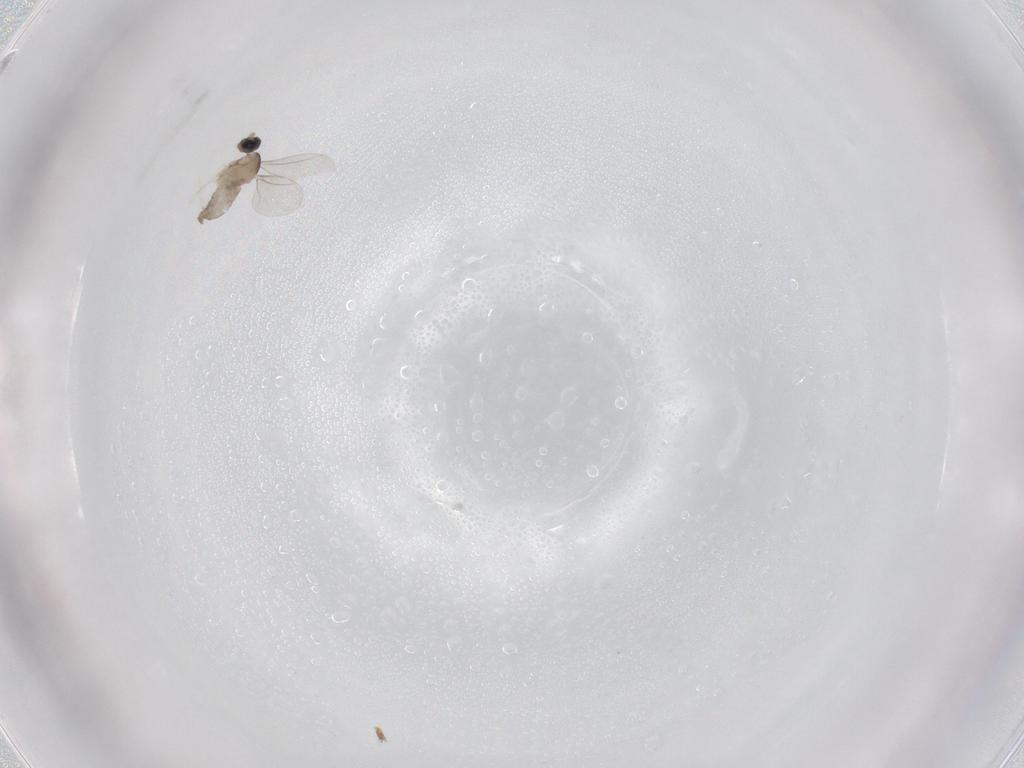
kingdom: Animalia
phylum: Arthropoda
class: Insecta
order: Diptera
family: Cecidomyiidae
